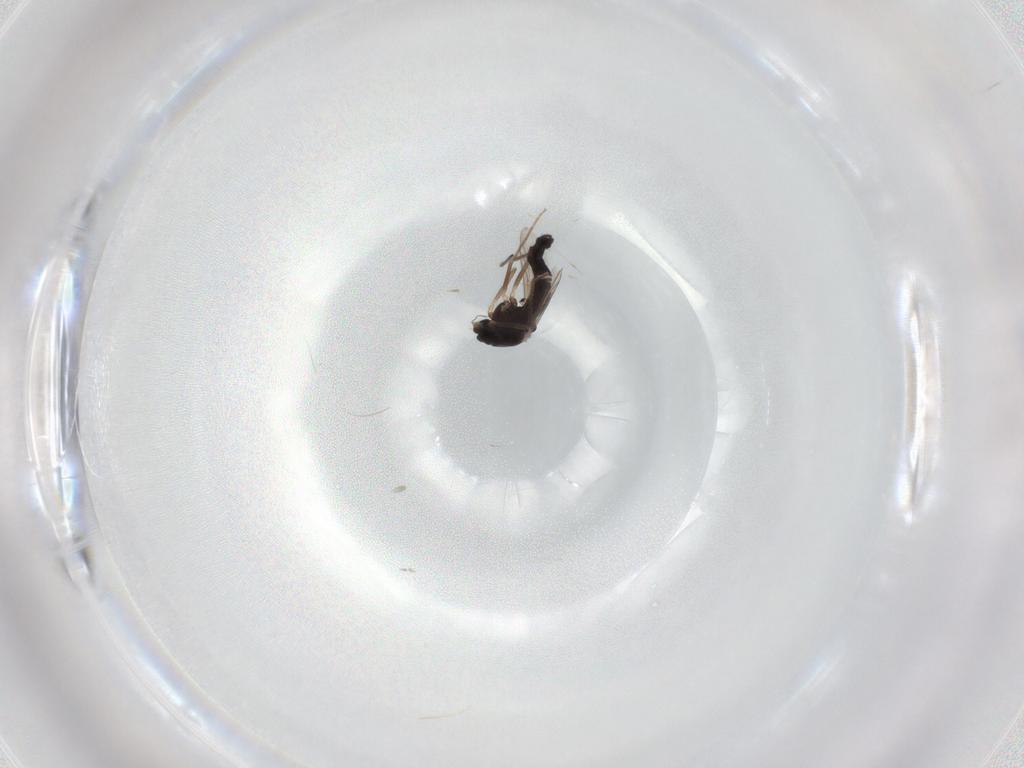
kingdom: Animalia
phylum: Arthropoda
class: Insecta
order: Diptera
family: Chironomidae
